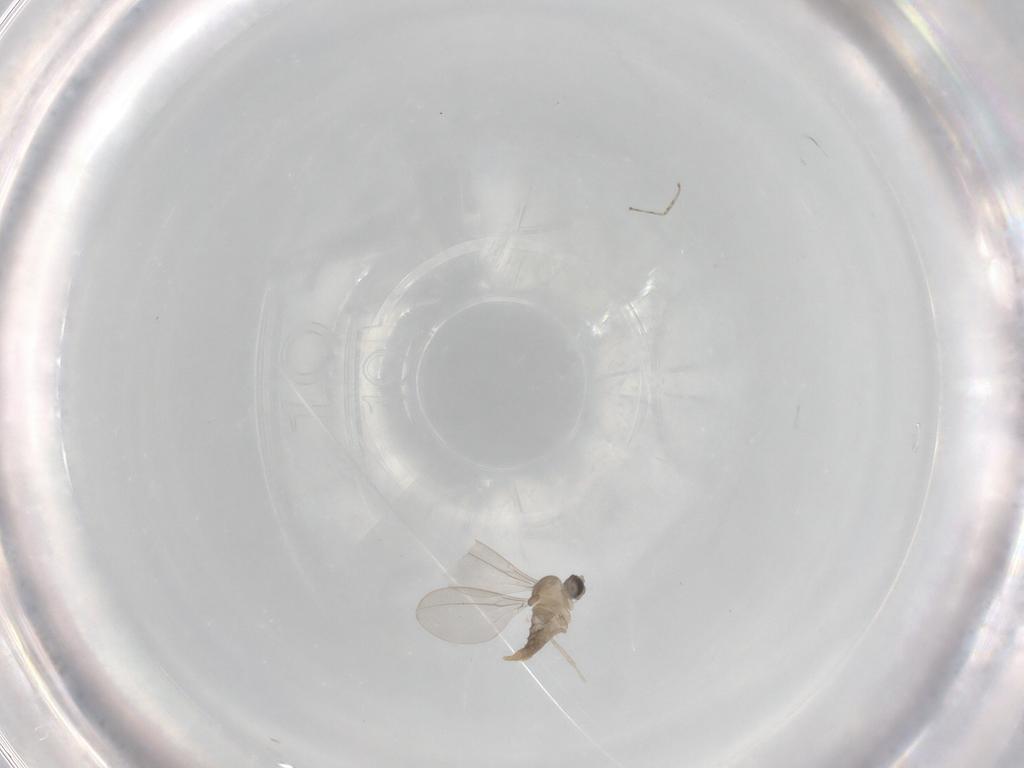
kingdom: Animalia
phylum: Arthropoda
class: Insecta
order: Diptera
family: Cecidomyiidae
